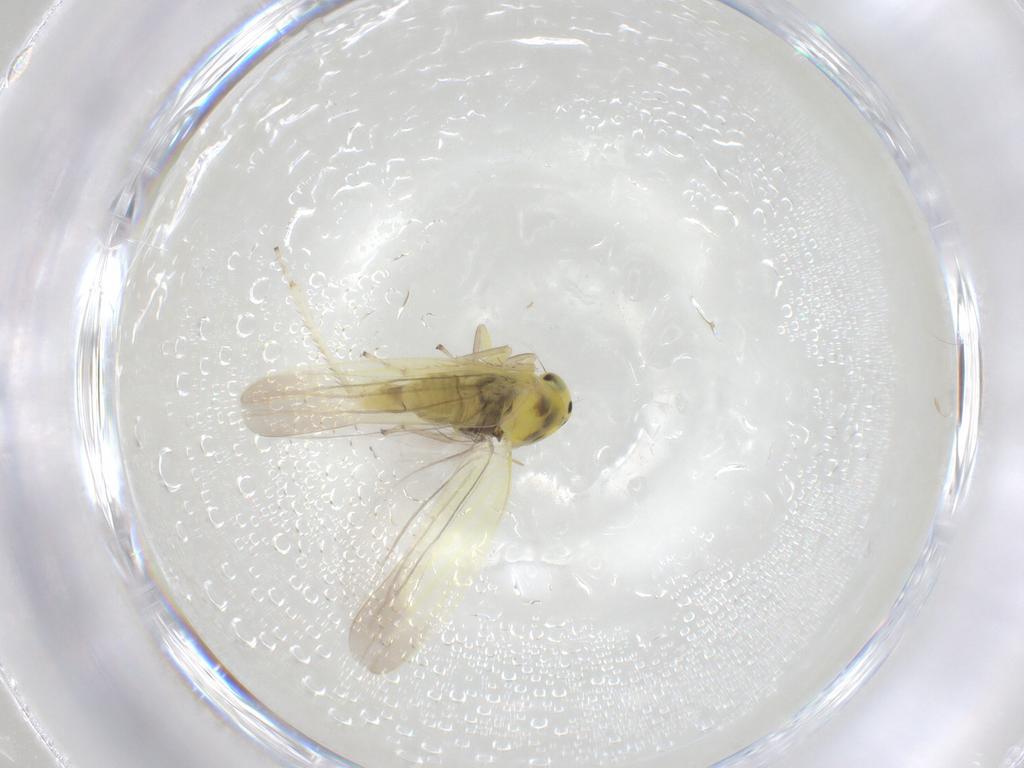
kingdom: Animalia
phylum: Arthropoda
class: Insecta
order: Hemiptera
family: Cicadellidae
